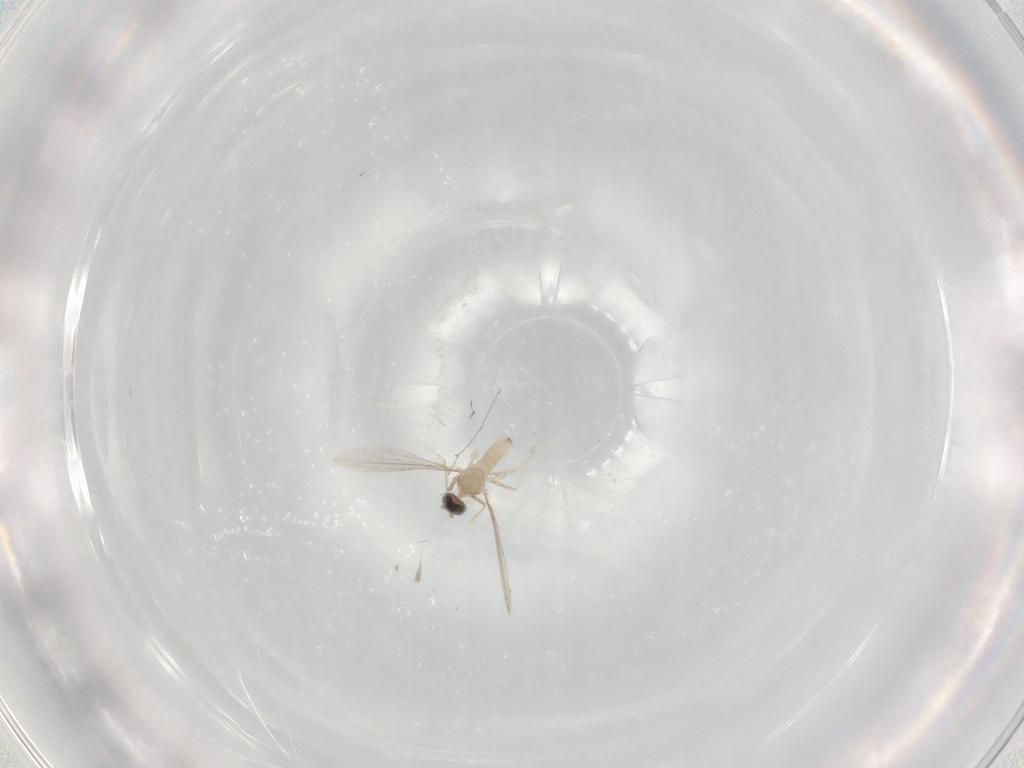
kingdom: Animalia
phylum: Arthropoda
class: Insecta
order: Diptera
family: Cecidomyiidae
